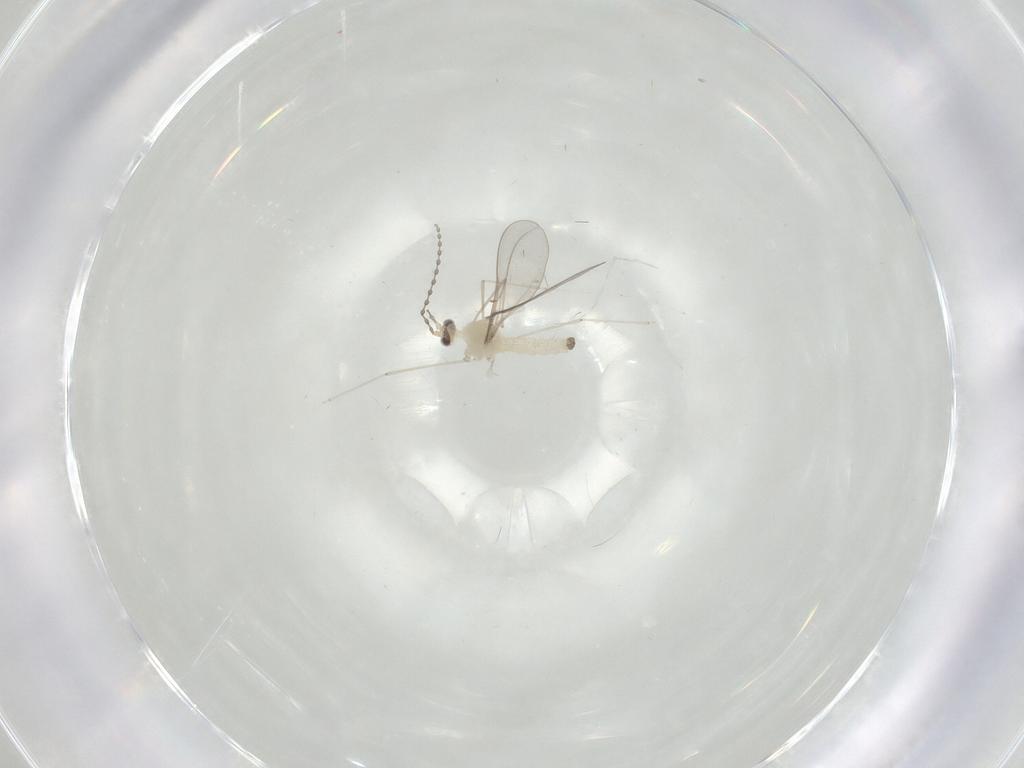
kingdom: Animalia
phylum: Arthropoda
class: Insecta
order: Diptera
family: Cecidomyiidae
